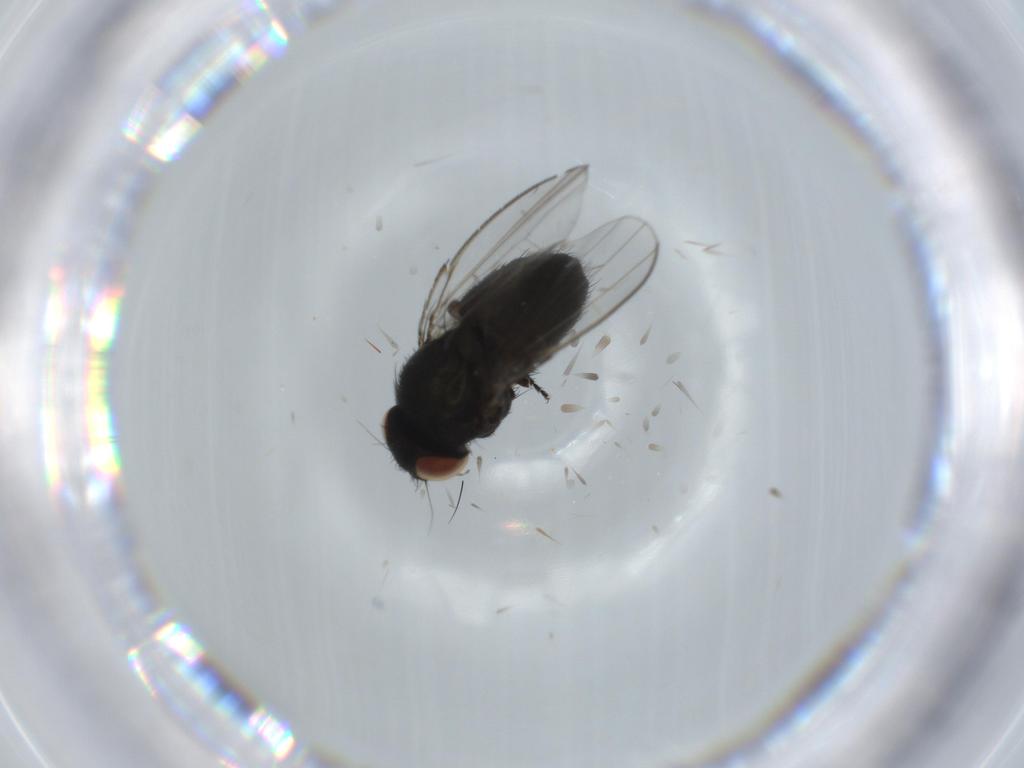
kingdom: Animalia
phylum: Arthropoda
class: Insecta
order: Diptera
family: Milichiidae
